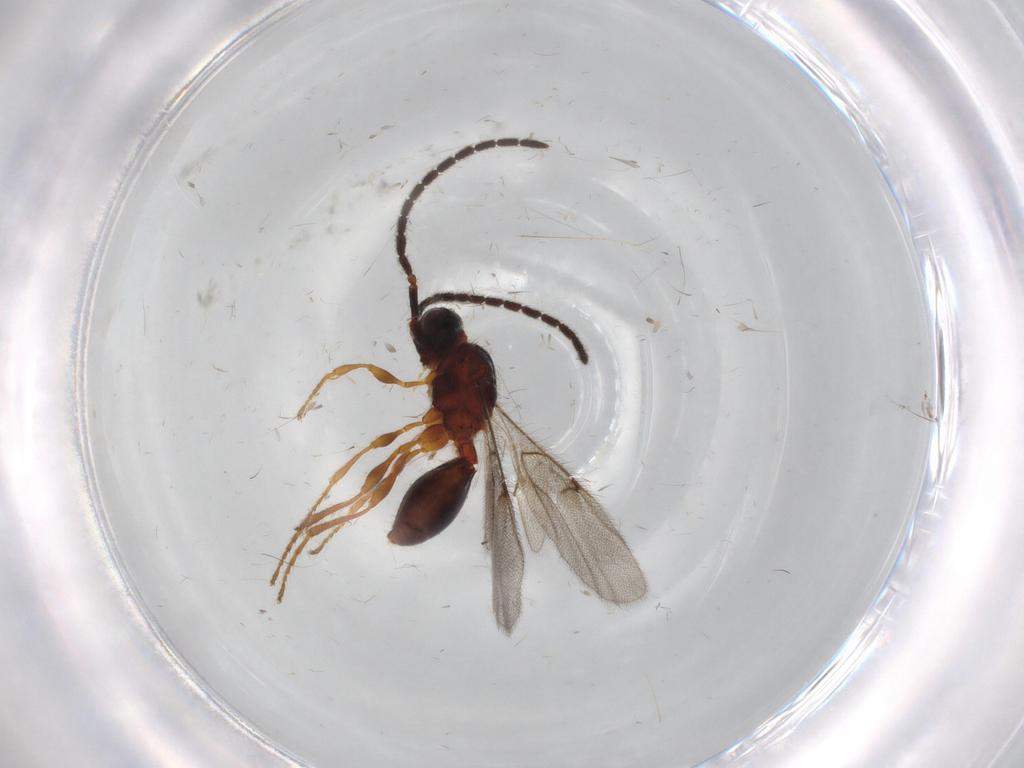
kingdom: Animalia
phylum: Arthropoda
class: Insecta
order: Hymenoptera
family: Diapriidae
